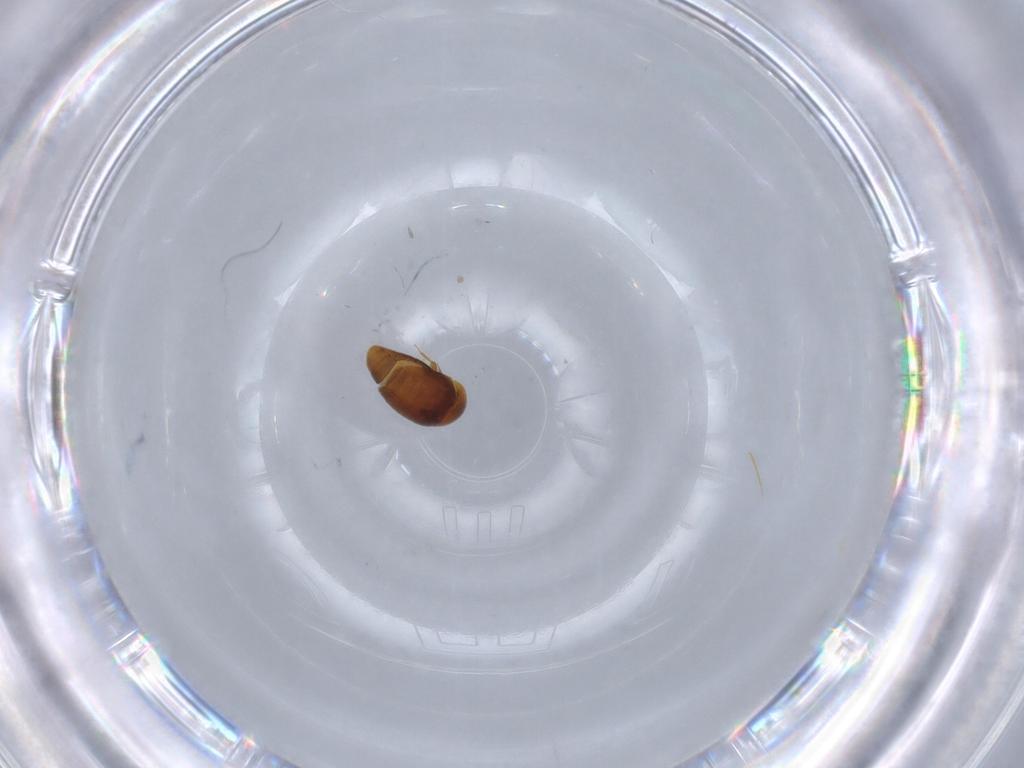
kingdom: Animalia
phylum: Arthropoda
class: Insecta
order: Coleoptera
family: Corylophidae
